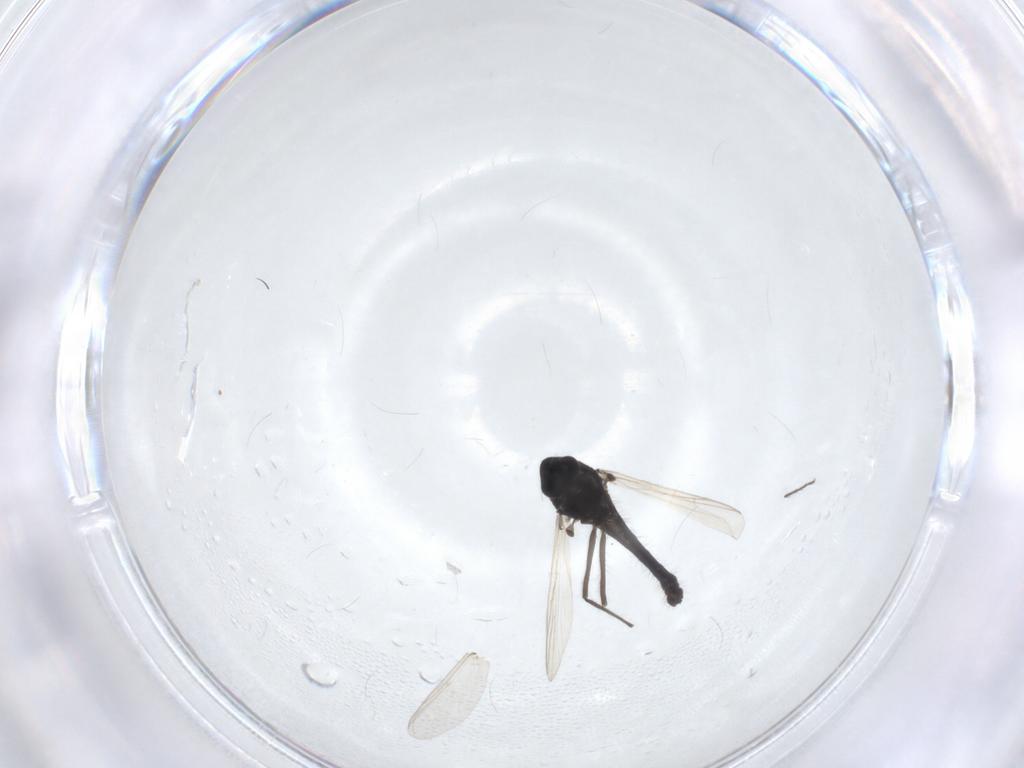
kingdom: Animalia
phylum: Arthropoda
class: Insecta
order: Diptera
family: Chironomidae
